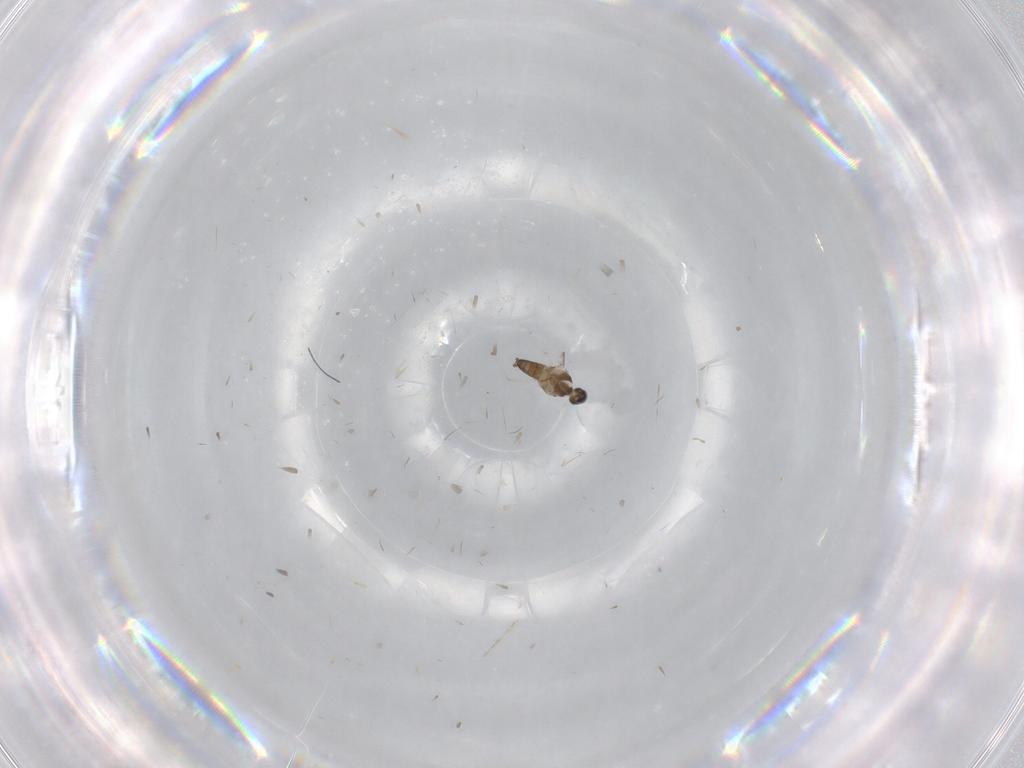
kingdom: Animalia
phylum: Arthropoda
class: Insecta
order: Diptera
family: Cecidomyiidae
